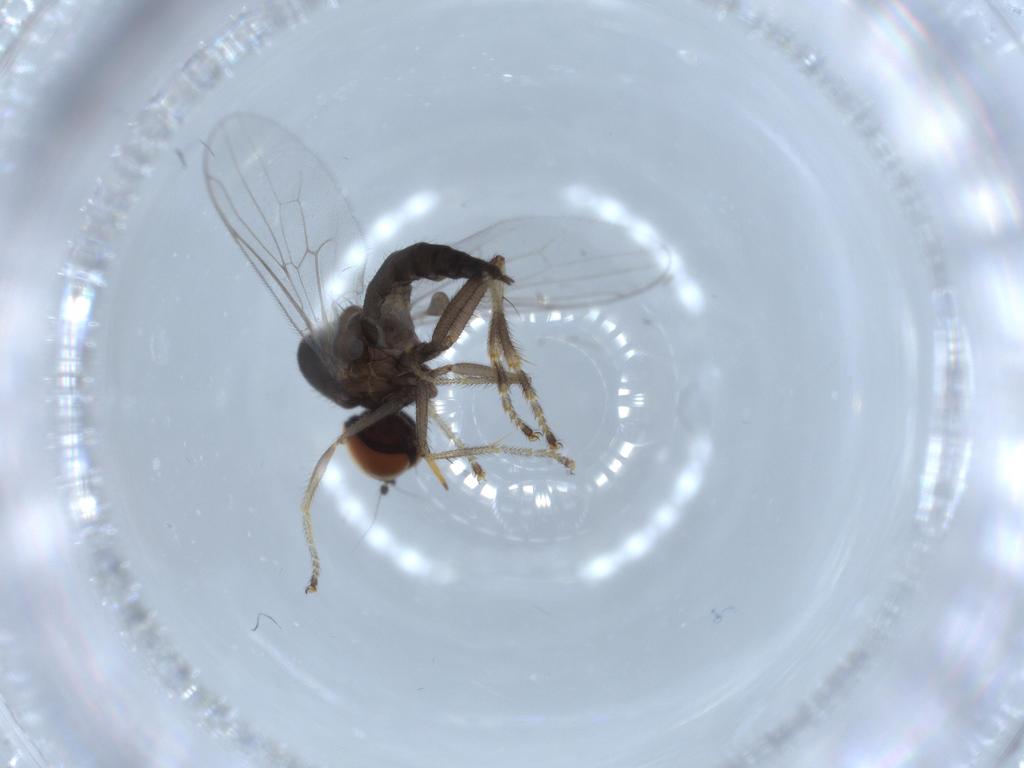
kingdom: Animalia
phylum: Arthropoda
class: Insecta
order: Diptera
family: Hybotidae
